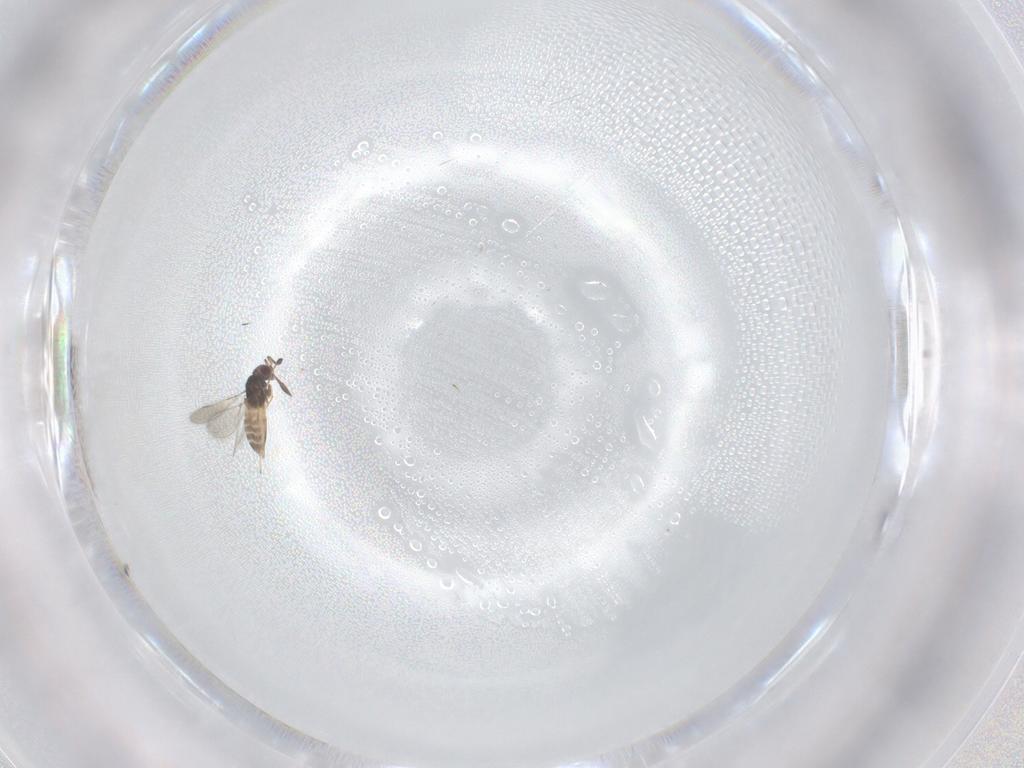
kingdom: Animalia
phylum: Arthropoda
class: Insecta
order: Hymenoptera
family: Mymaridae
